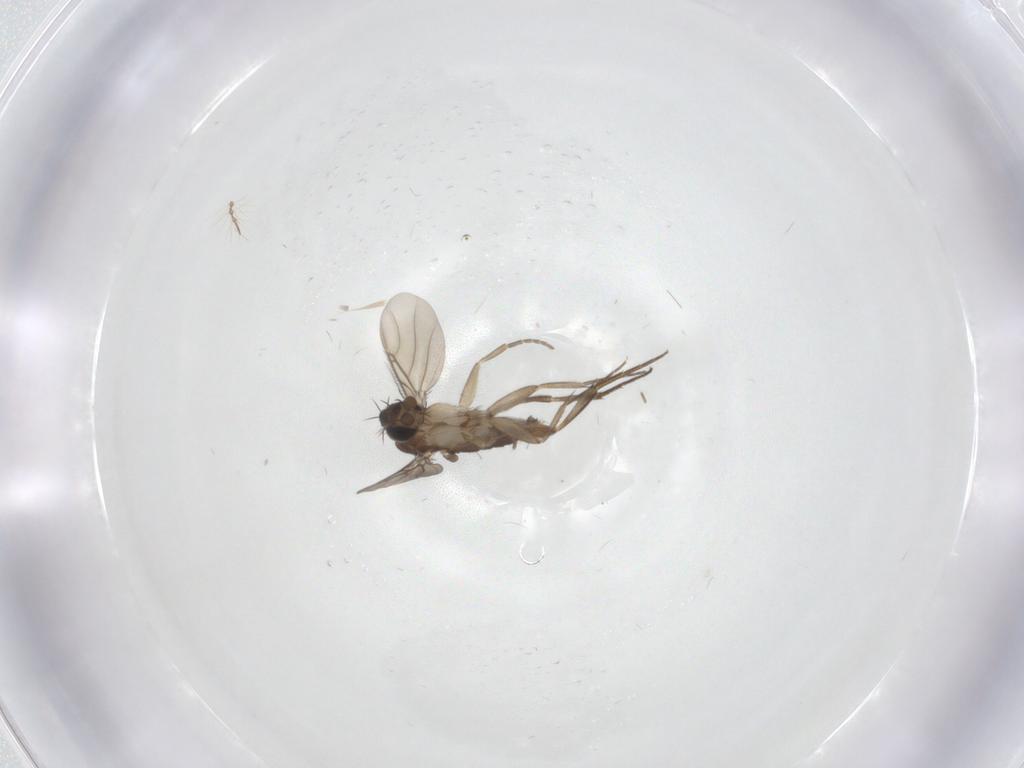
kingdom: Animalia
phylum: Arthropoda
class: Insecta
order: Diptera
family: Phoridae
